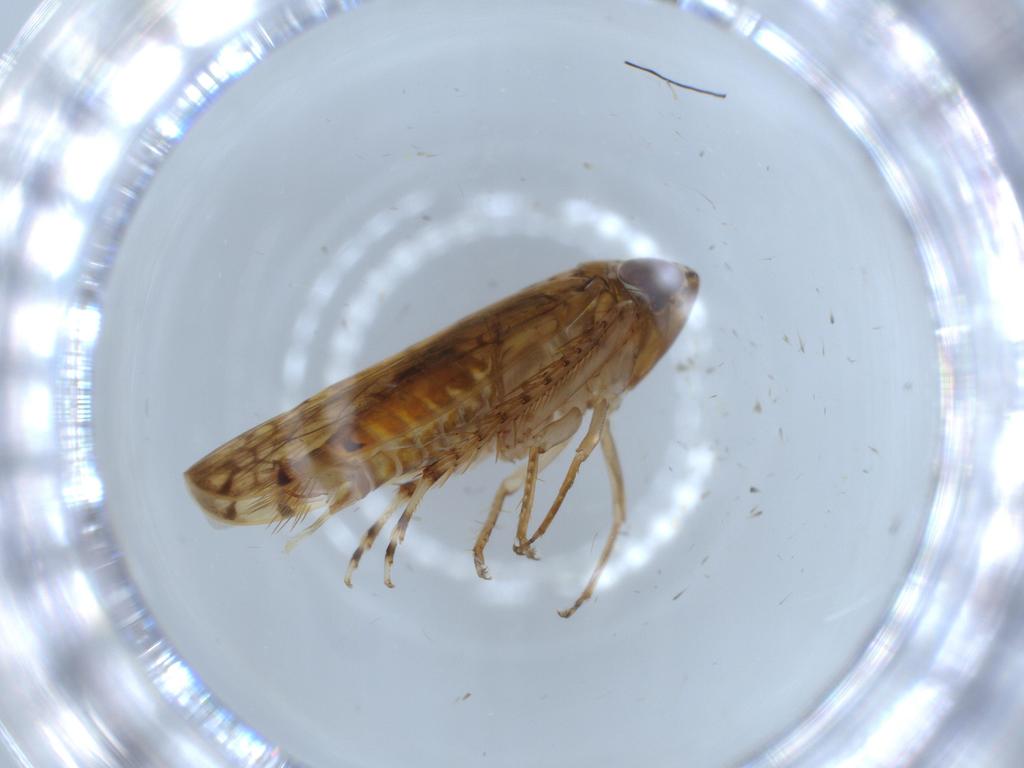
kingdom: Animalia
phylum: Arthropoda
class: Insecta
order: Hemiptera
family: Cicadellidae
